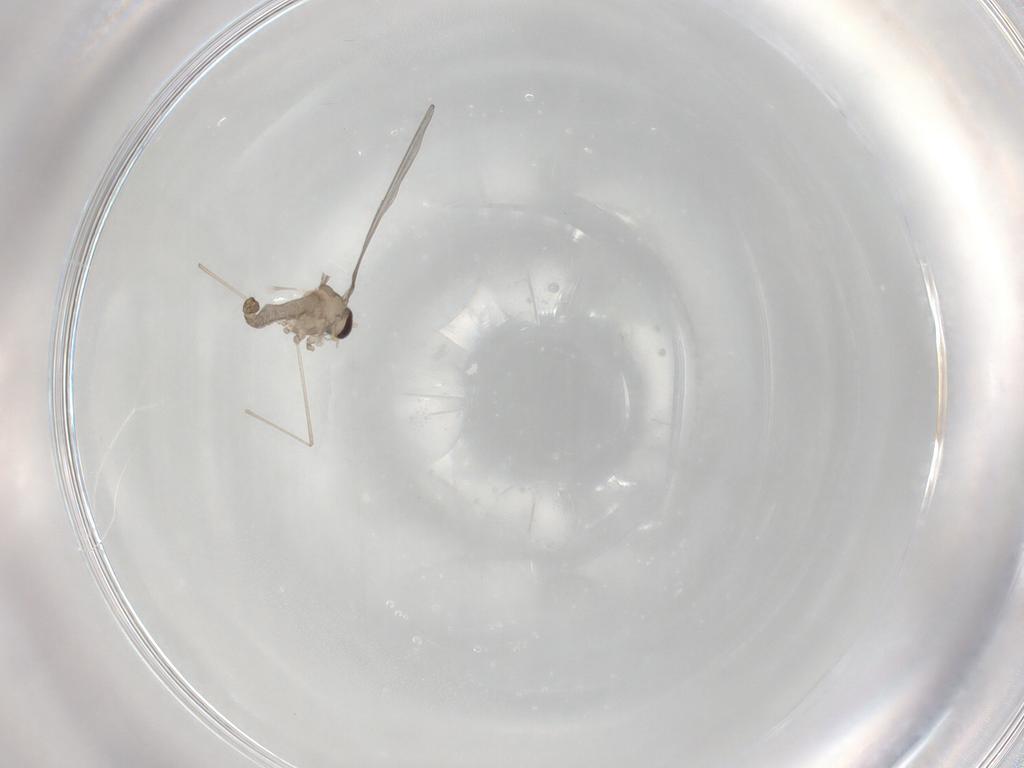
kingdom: Animalia
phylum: Arthropoda
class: Insecta
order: Diptera
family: Cecidomyiidae
